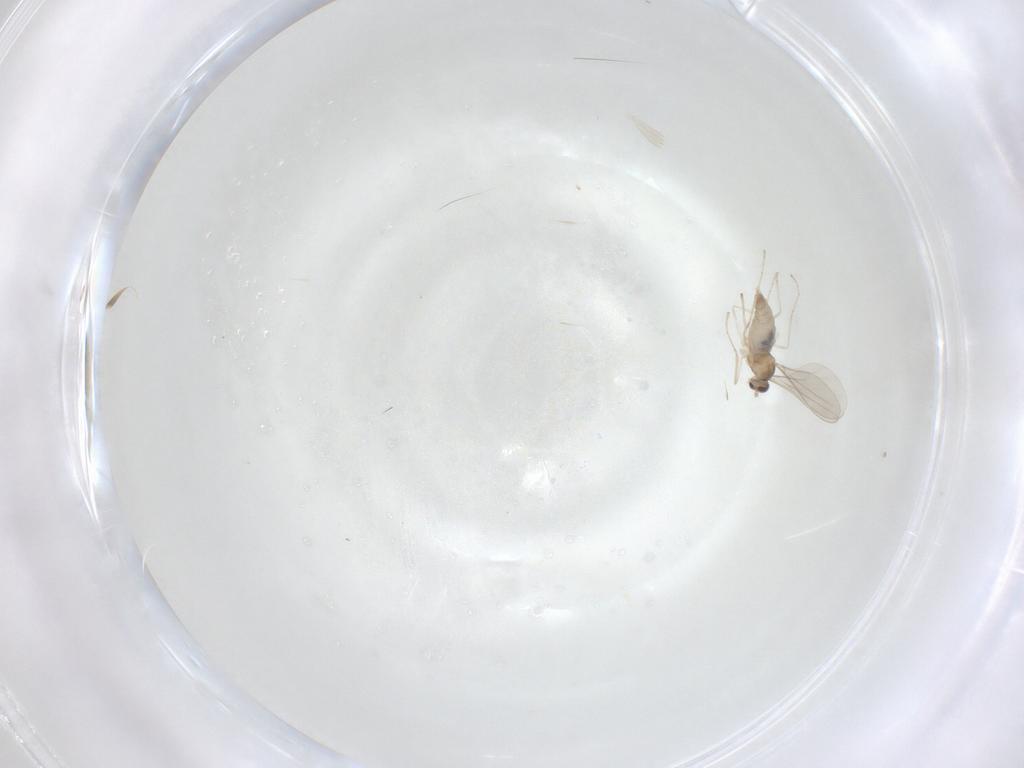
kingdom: Animalia
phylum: Arthropoda
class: Insecta
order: Diptera
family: Cecidomyiidae
